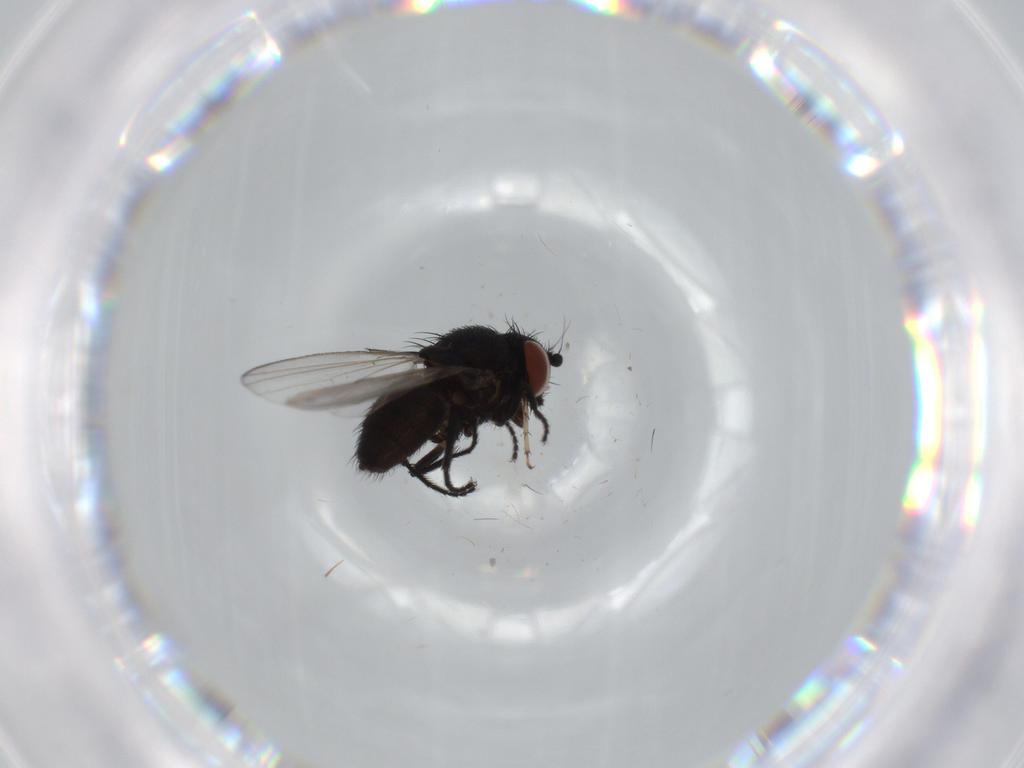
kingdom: Animalia
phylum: Arthropoda
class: Insecta
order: Diptera
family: Cecidomyiidae
